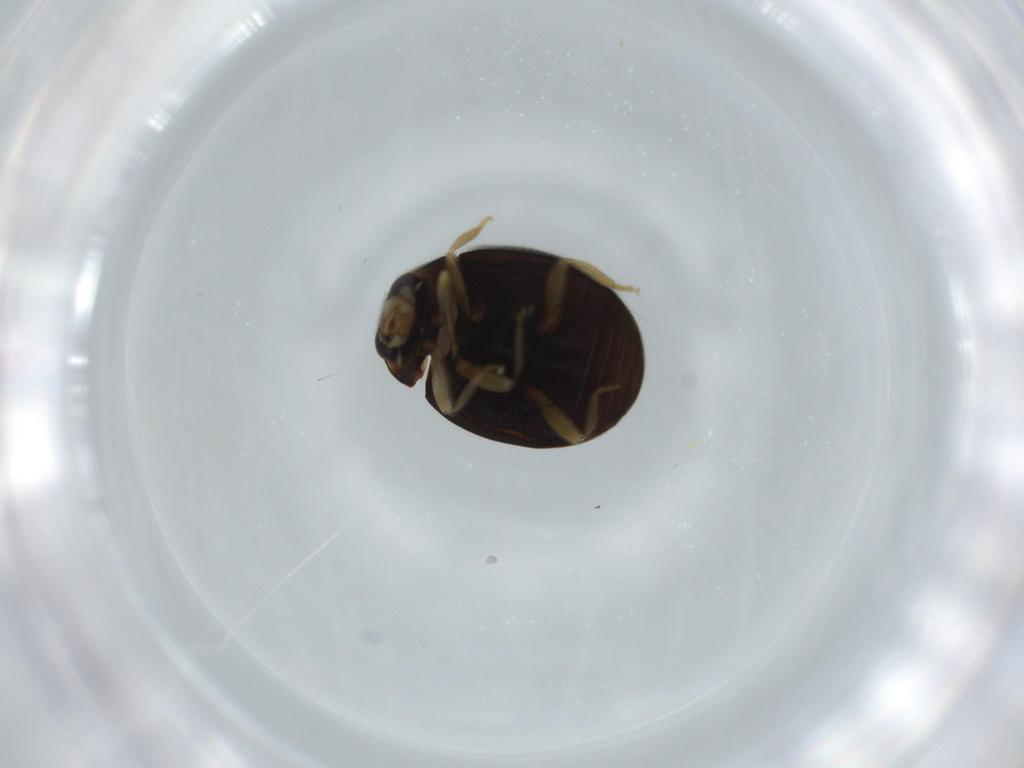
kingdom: Animalia
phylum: Arthropoda
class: Insecta
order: Coleoptera
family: Coccinellidae
